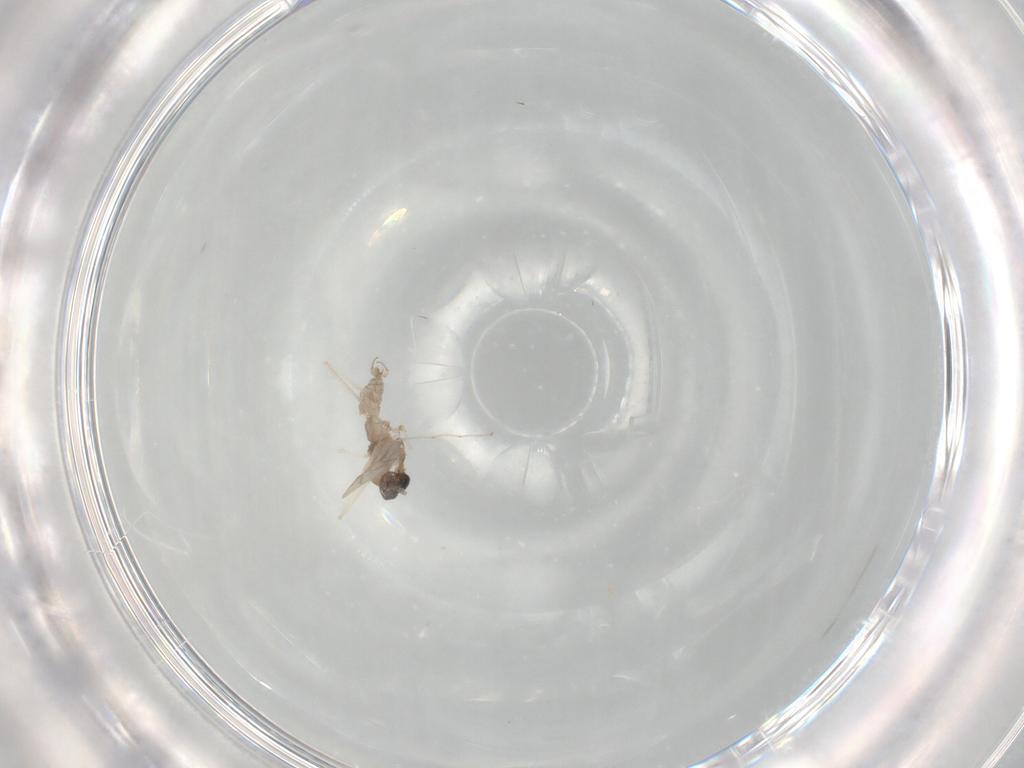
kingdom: Animalia
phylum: Arthropoda
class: Insecta
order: Diptera
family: Cecidomyiidae
